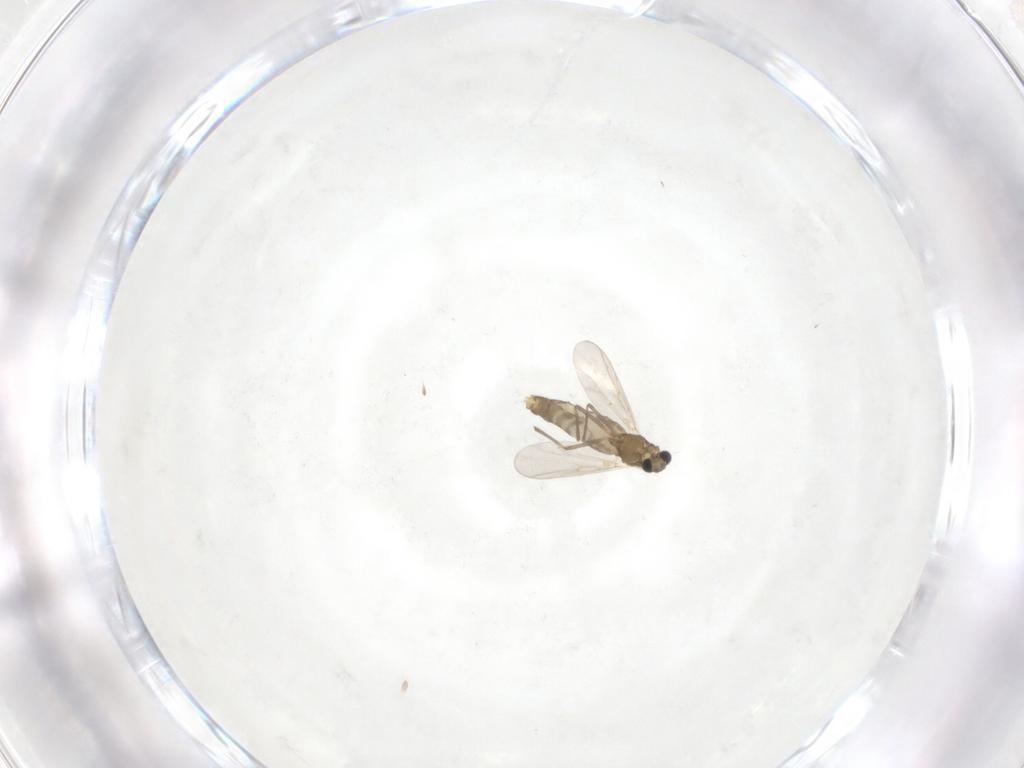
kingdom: Animalia
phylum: Arthropoda
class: Insecta
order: Diptera
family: Chironomidae
